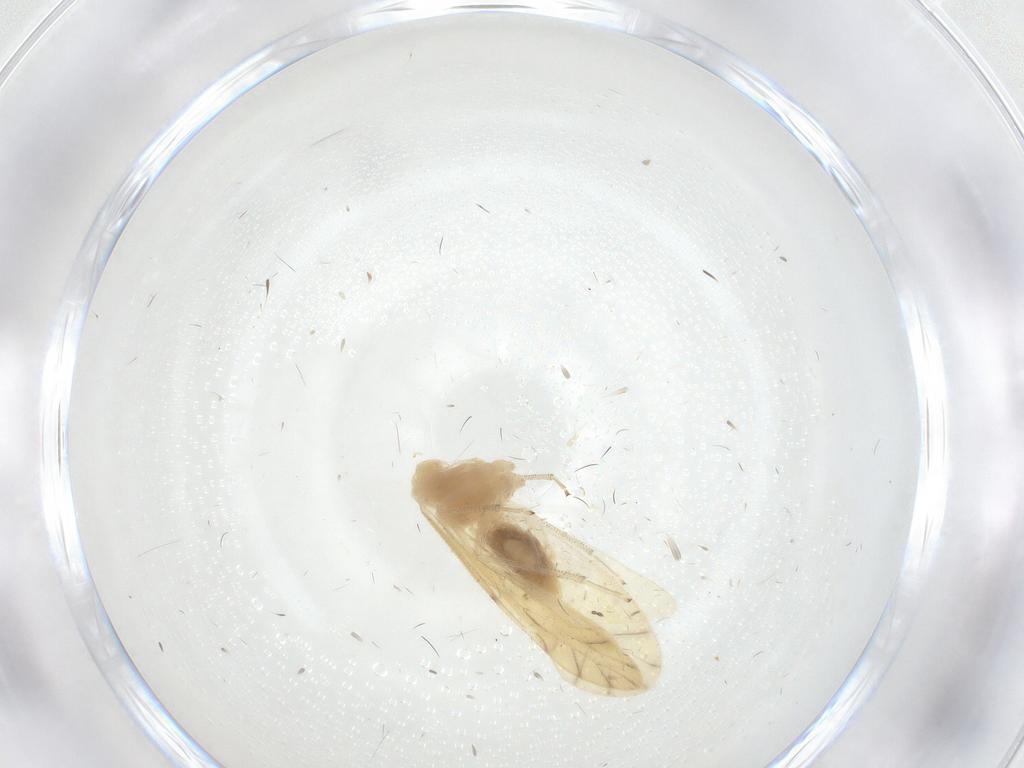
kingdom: Animalia
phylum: Arthropoda
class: Insecta
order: Psocodea
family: Caeciliusidae
